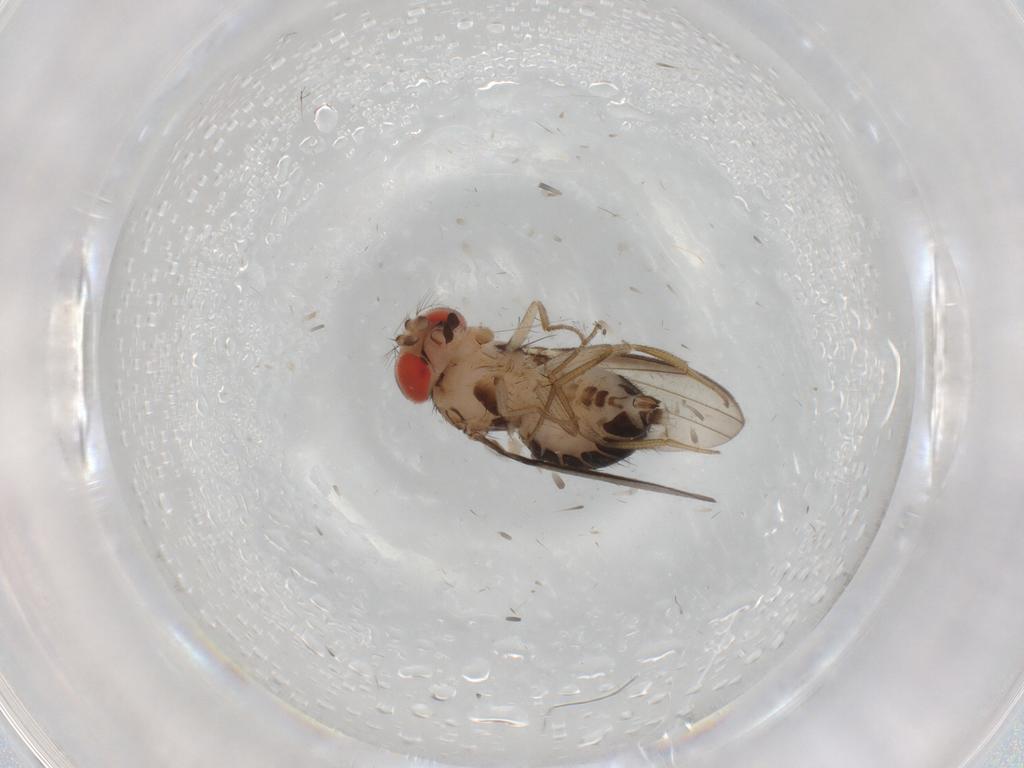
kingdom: Animalia
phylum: Arthropoda
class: Insecta
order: Diptera
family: Drosophilidae
